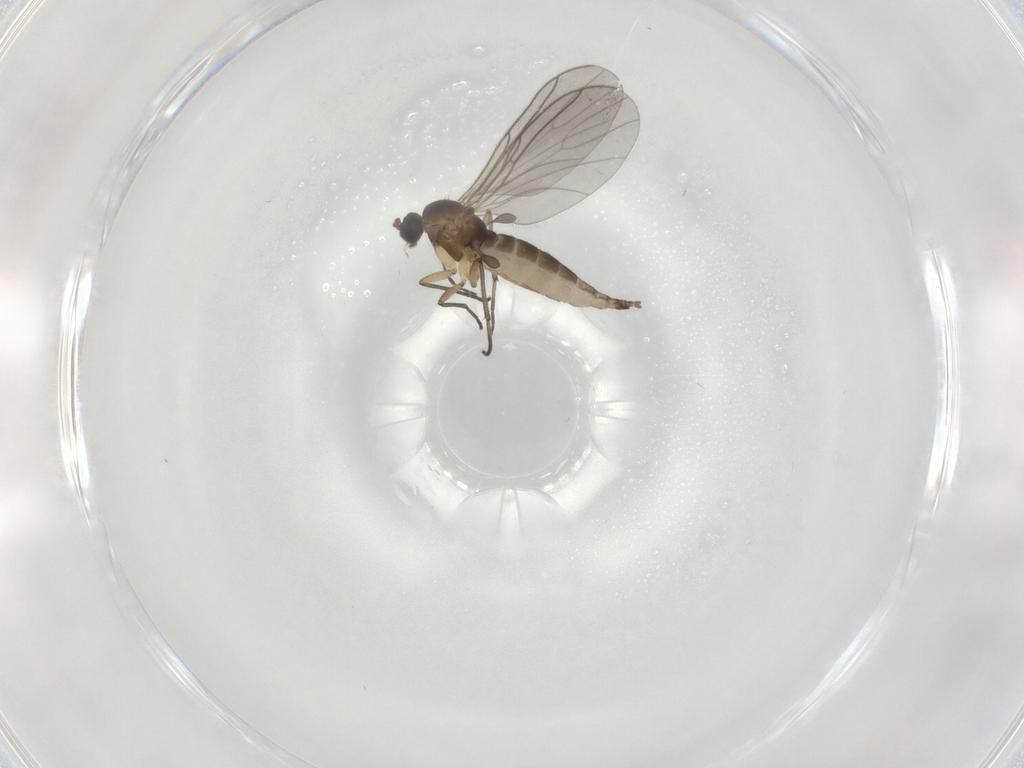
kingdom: Animalia
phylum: Arthropoda
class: Insecta
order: Diptera
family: Sciaridae
